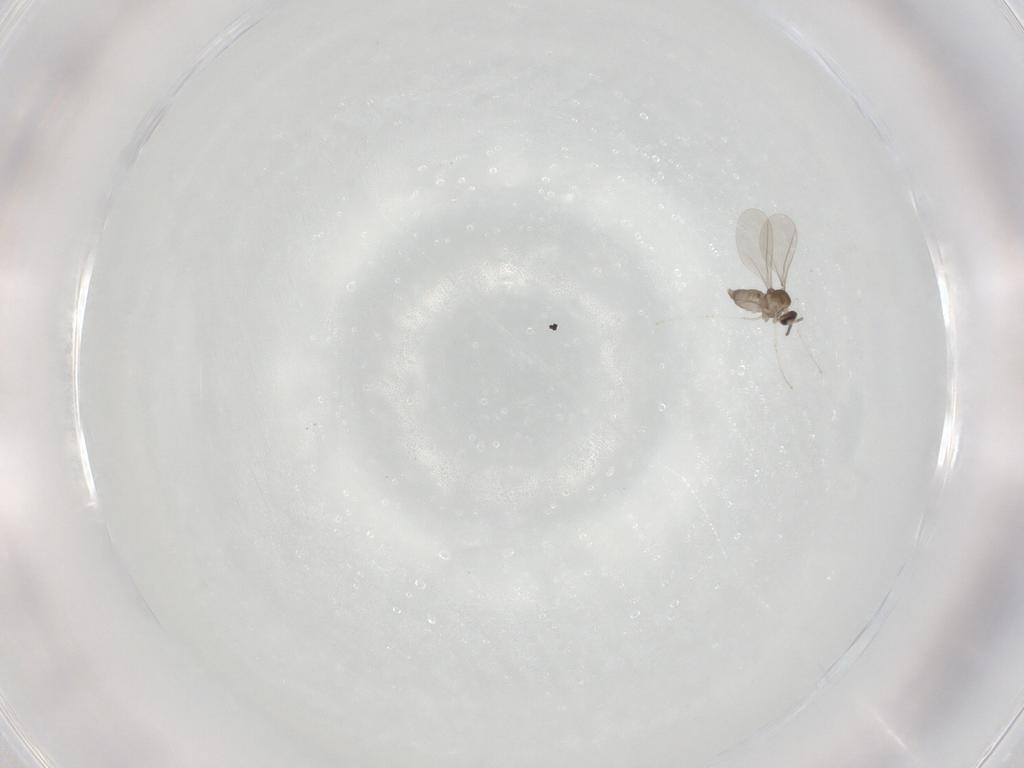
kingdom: Animalia
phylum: Arthropoda
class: Insecta
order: Diptera
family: Cecidomyiidae
